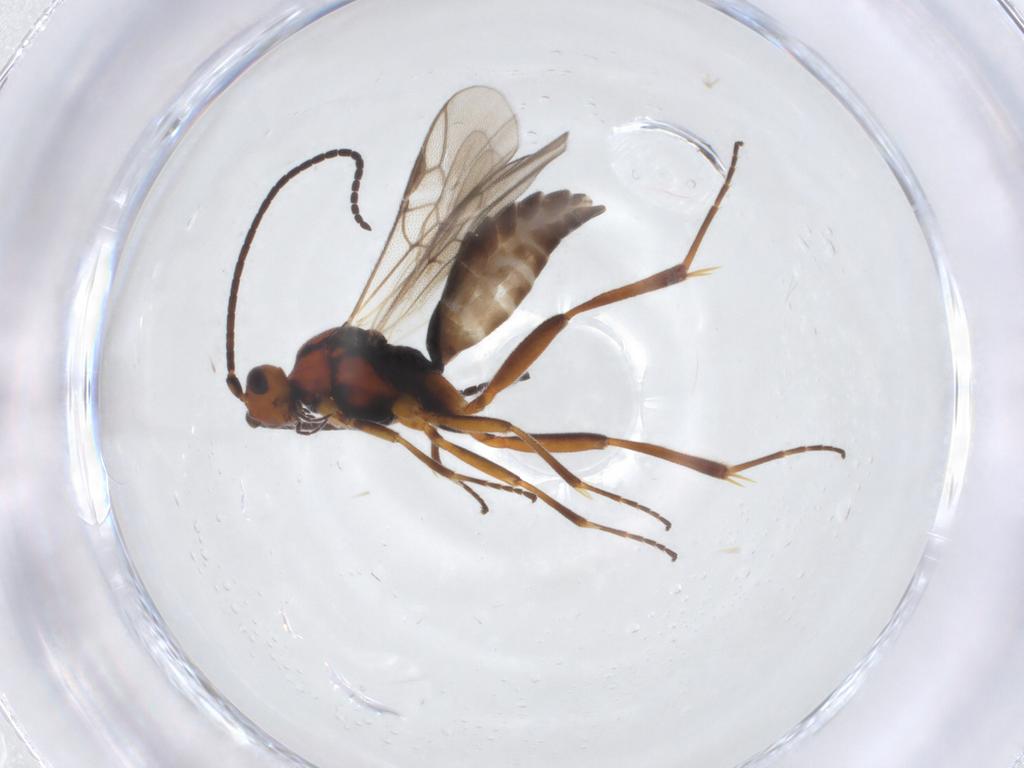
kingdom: Animalia
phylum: Arthropoda
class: Insecta
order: Hymenoptera
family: Braconidae
